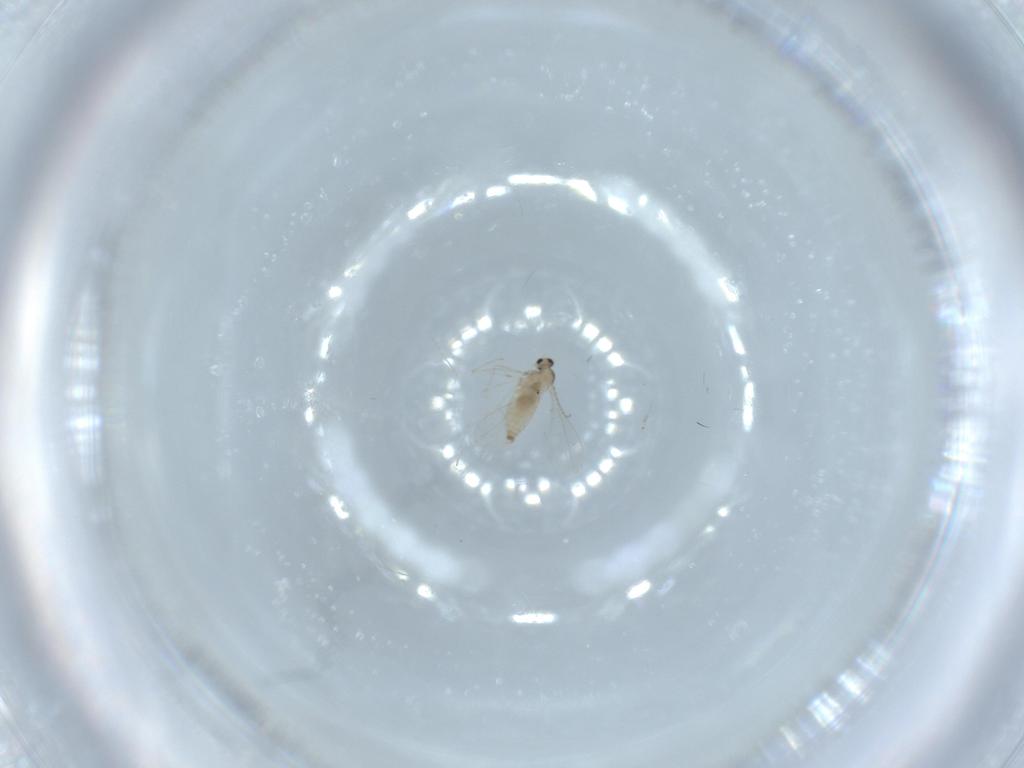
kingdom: Animalia
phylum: Arthropoda
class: Insecta
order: Diptera
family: Cecidomyiidae
